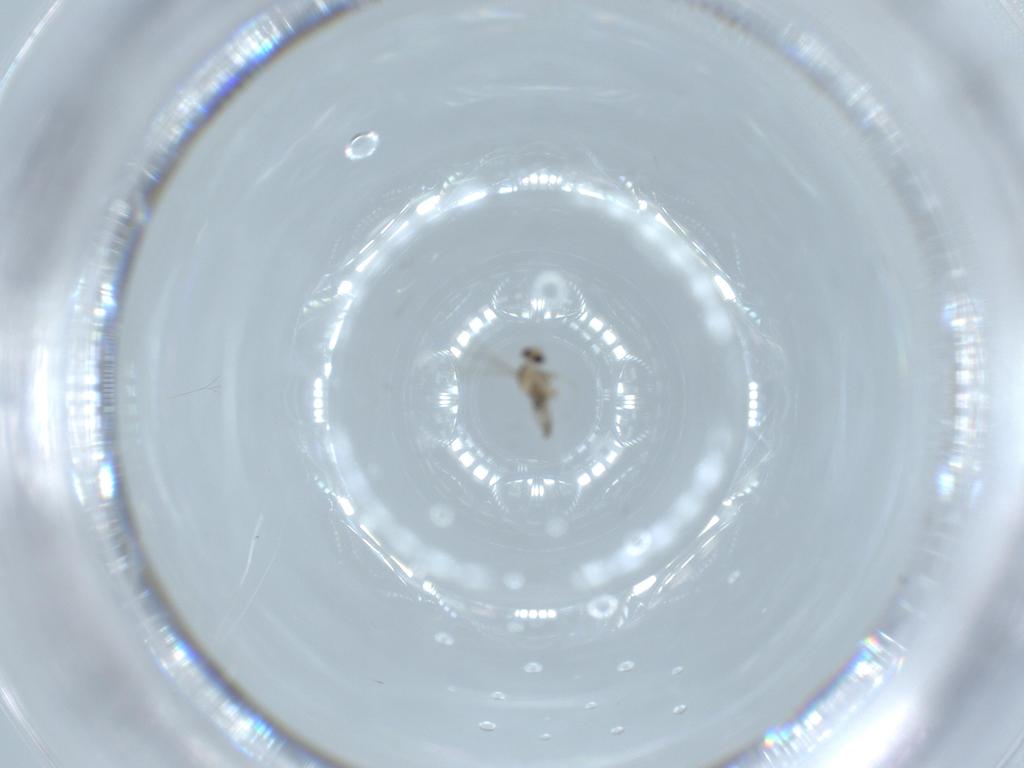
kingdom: Animalia
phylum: Arthropoda
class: Insecta
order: Diptera
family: Cecidomyiidae
